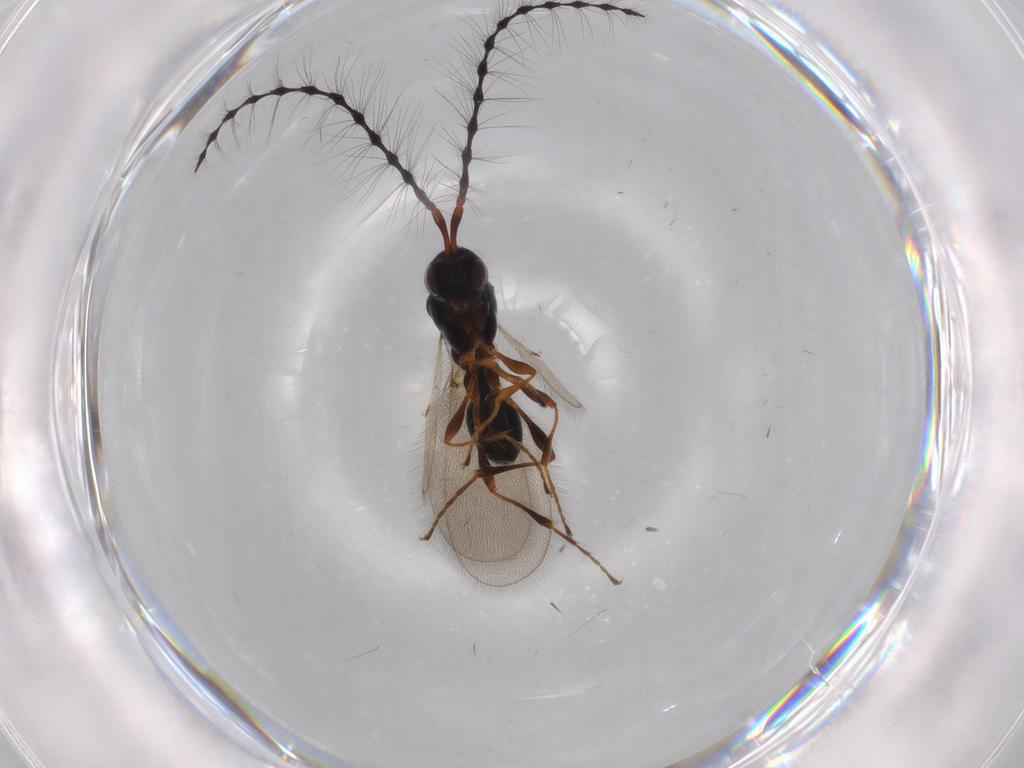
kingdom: Animalia
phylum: Arthropoda
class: Insecta
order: Hymenoptera
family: Diapriidae
